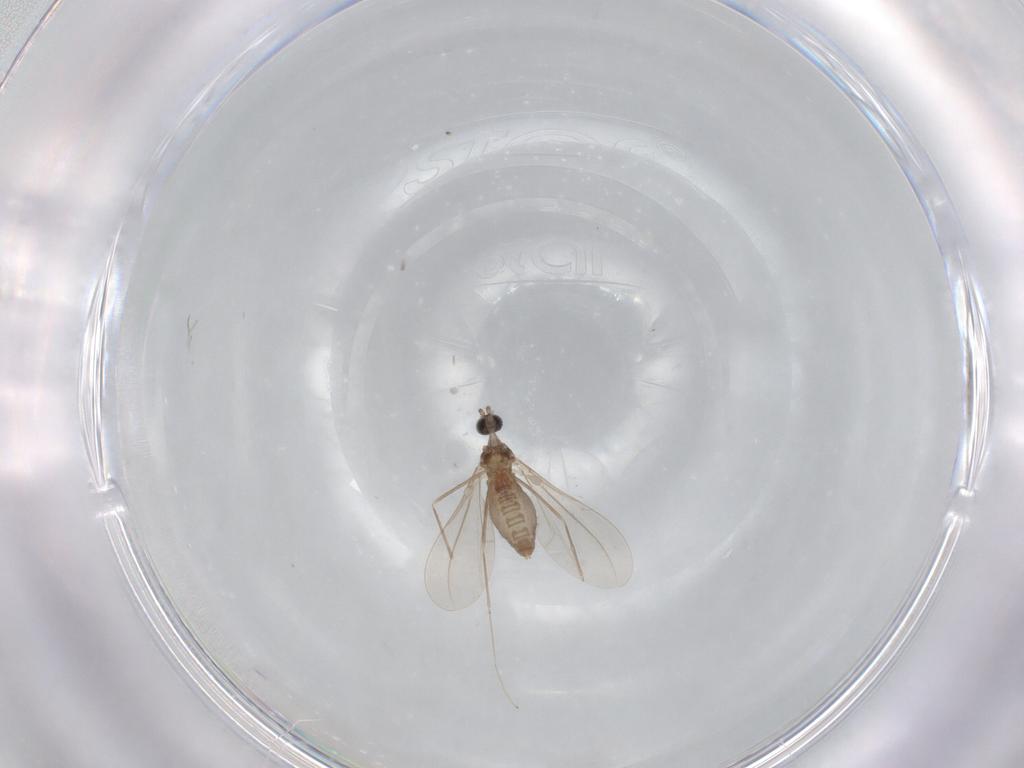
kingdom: Animalia
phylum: Arthropoda
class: Insecta
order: Diptera
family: Cecidomyiidae
